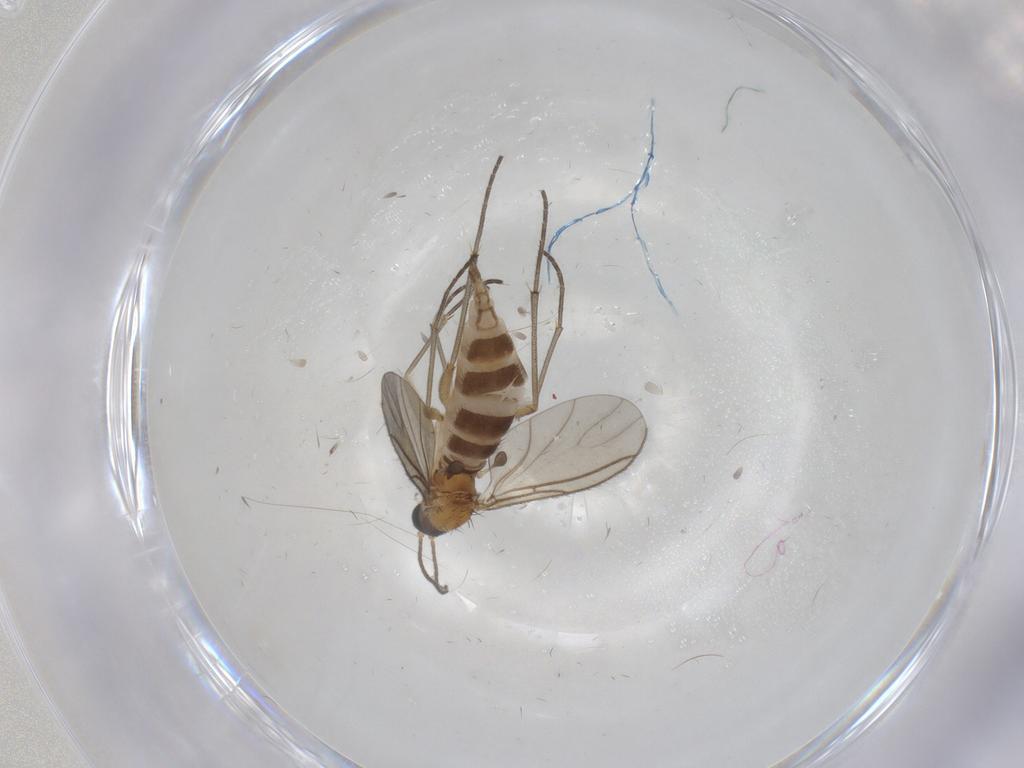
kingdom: Animalia
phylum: Arthropoda
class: Insecta
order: Diptera
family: Sciaridae
